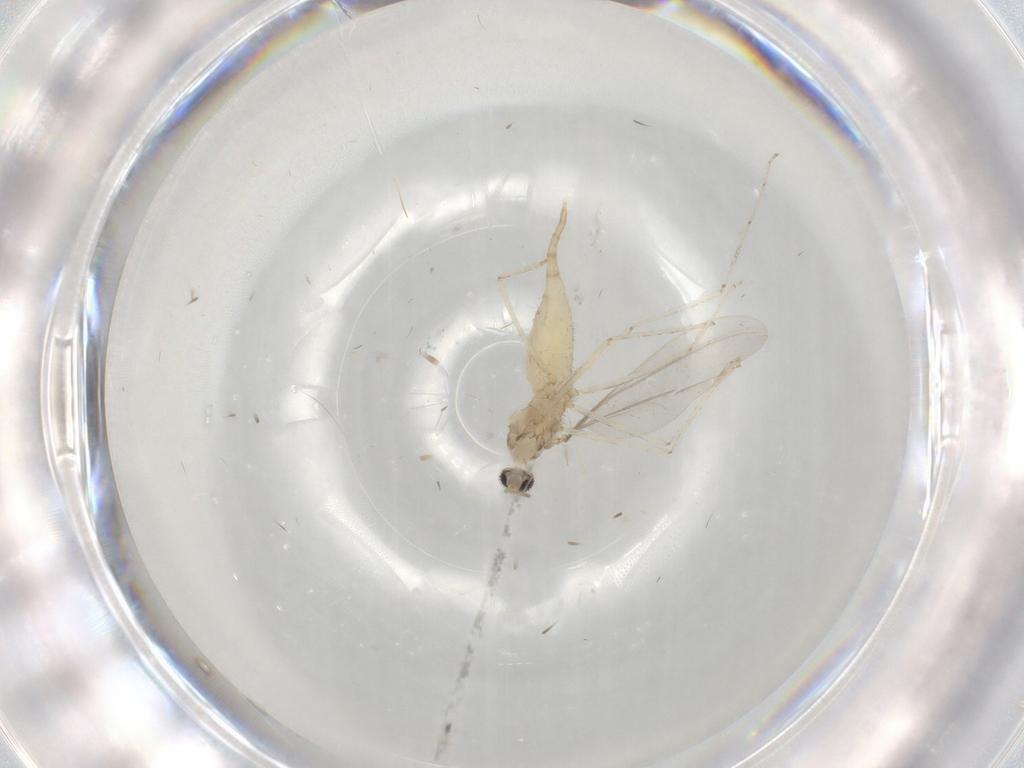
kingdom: Animalia
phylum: Arthropoda
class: Insecta
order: Diptera
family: Cecidomyiidae
